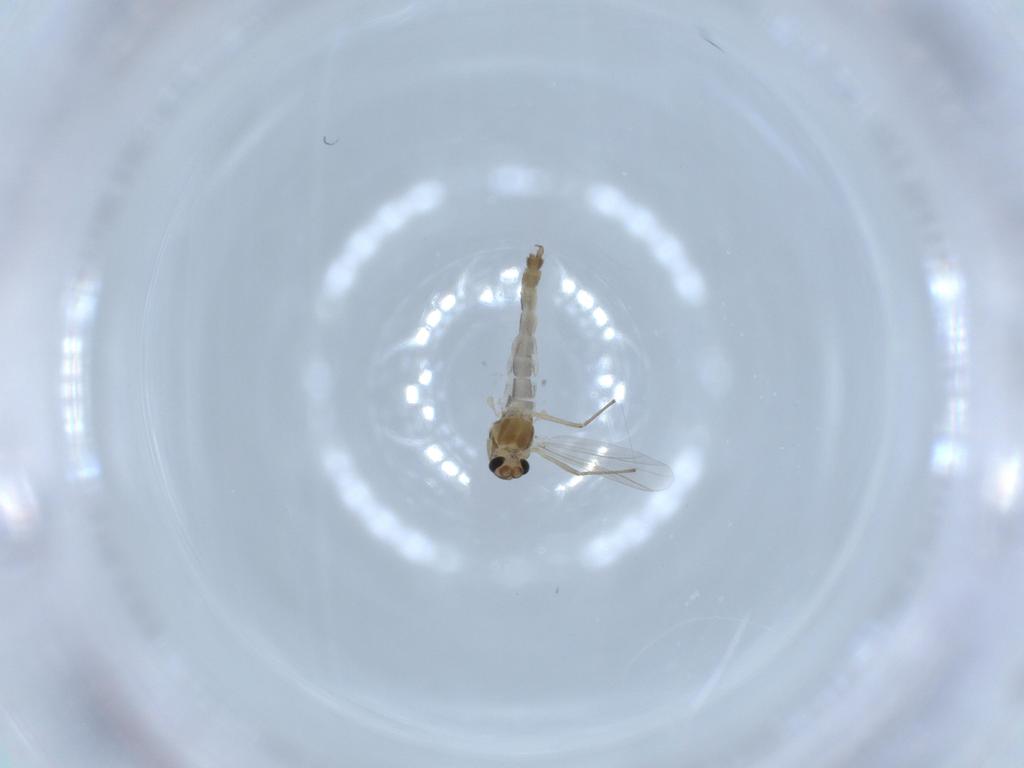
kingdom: Animalia
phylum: Arthropoda
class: Insecta
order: Diptera
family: Chironomidae
